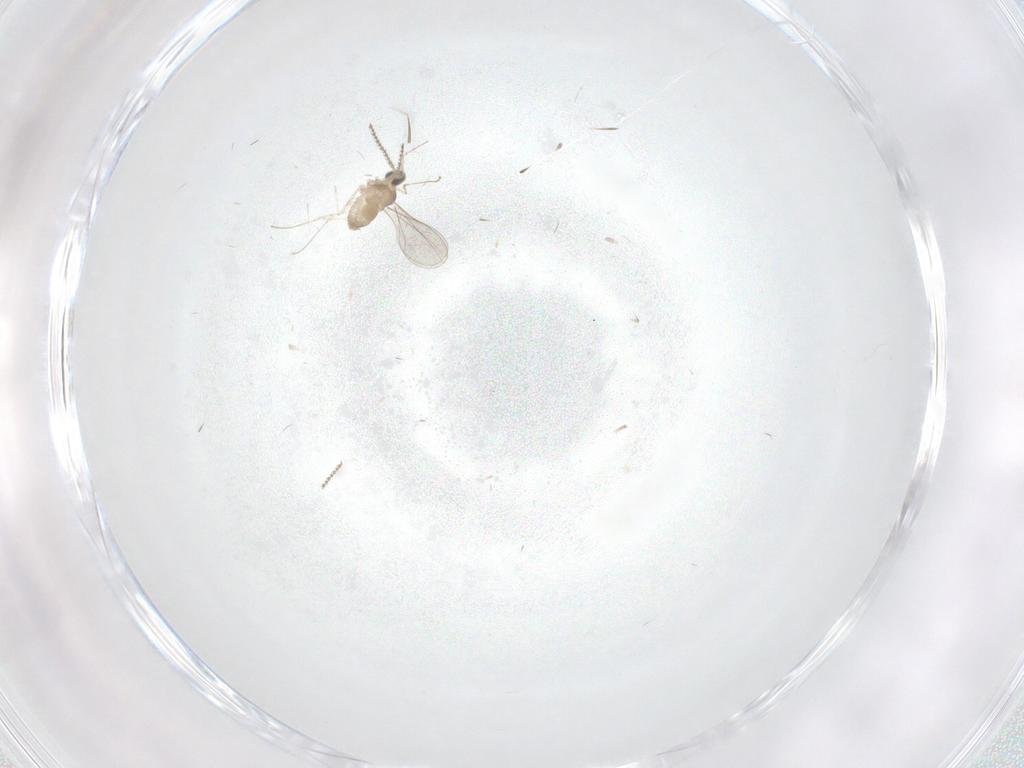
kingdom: Animalia
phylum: Arthropoda
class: Insecta
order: Diptera
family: Cecidomyiidae
